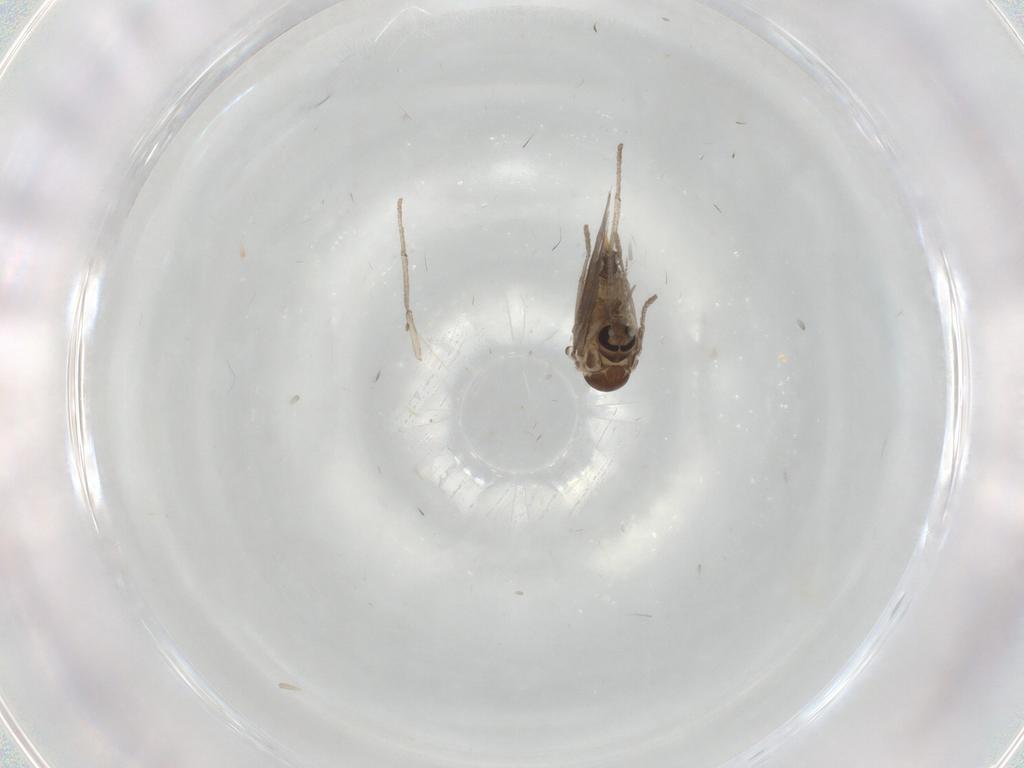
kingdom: Animalia
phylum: Arthropoda
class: Insecta
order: Diptera
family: Psychodidae
